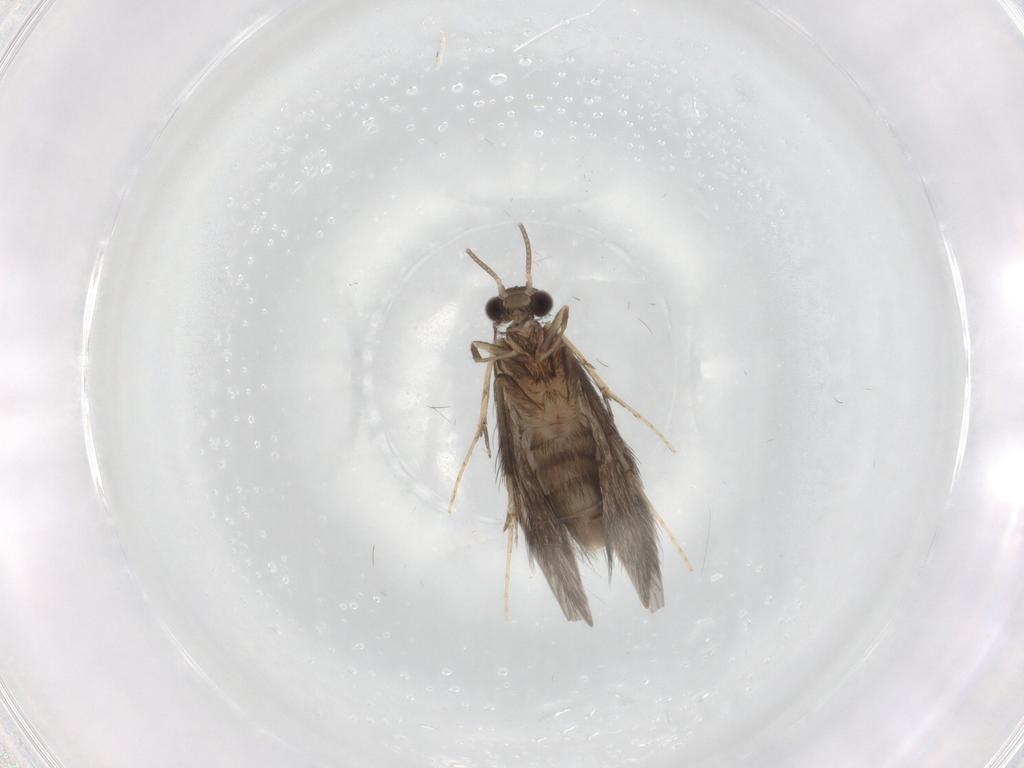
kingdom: Animalia
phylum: Arthropoda
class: Insecta
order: Trichoptera
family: Hydroptilidae
